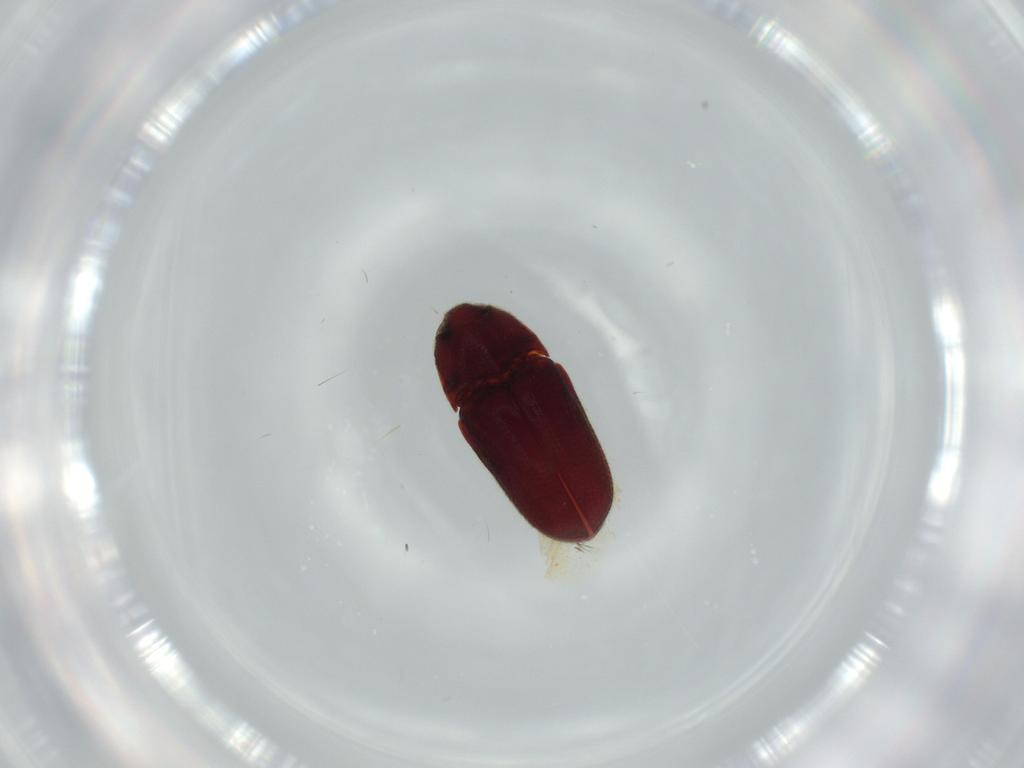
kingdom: Animalia
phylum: Arthropoda
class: Insecta
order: Coleoptera
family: Throscidae
